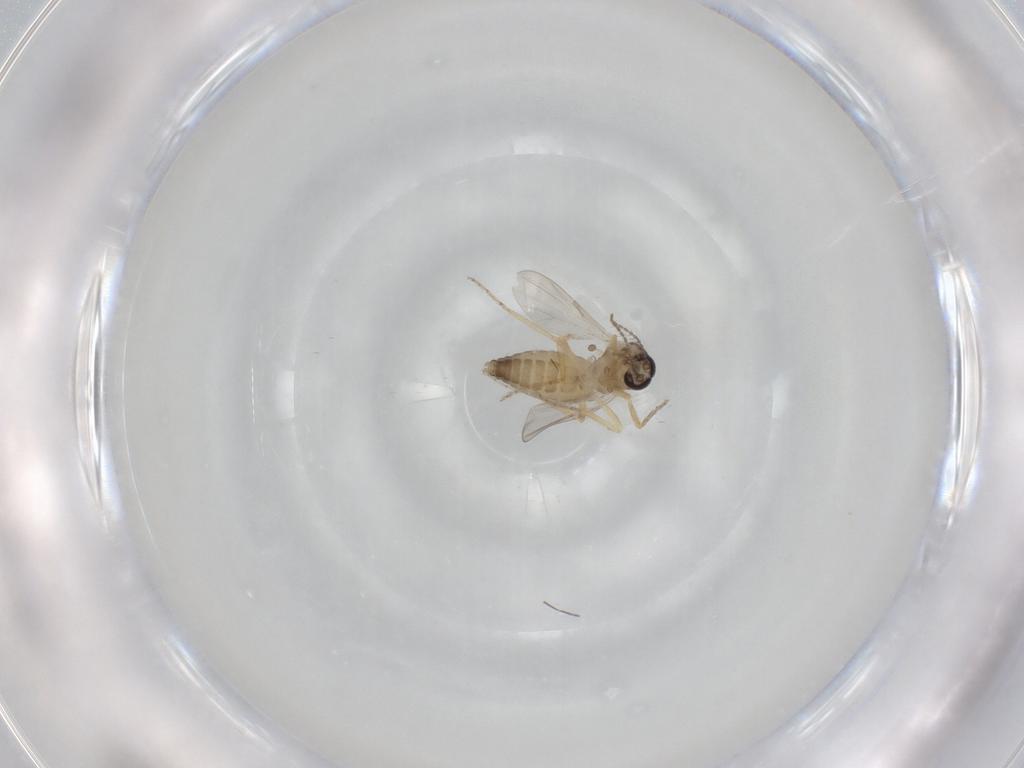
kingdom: Animalia
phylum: Arthropoda
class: Insecta
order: Diptera
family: Ceratopogonidae
